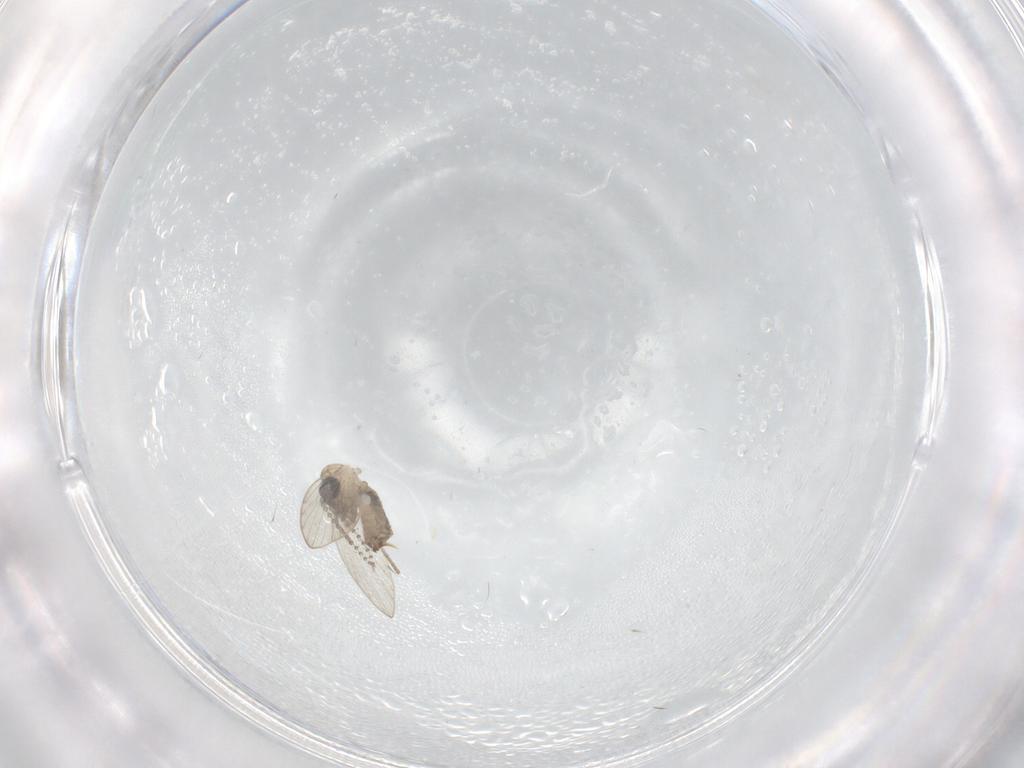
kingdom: Animalia
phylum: Arthropoda
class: Insecta
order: Diptera
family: Psychodidae
